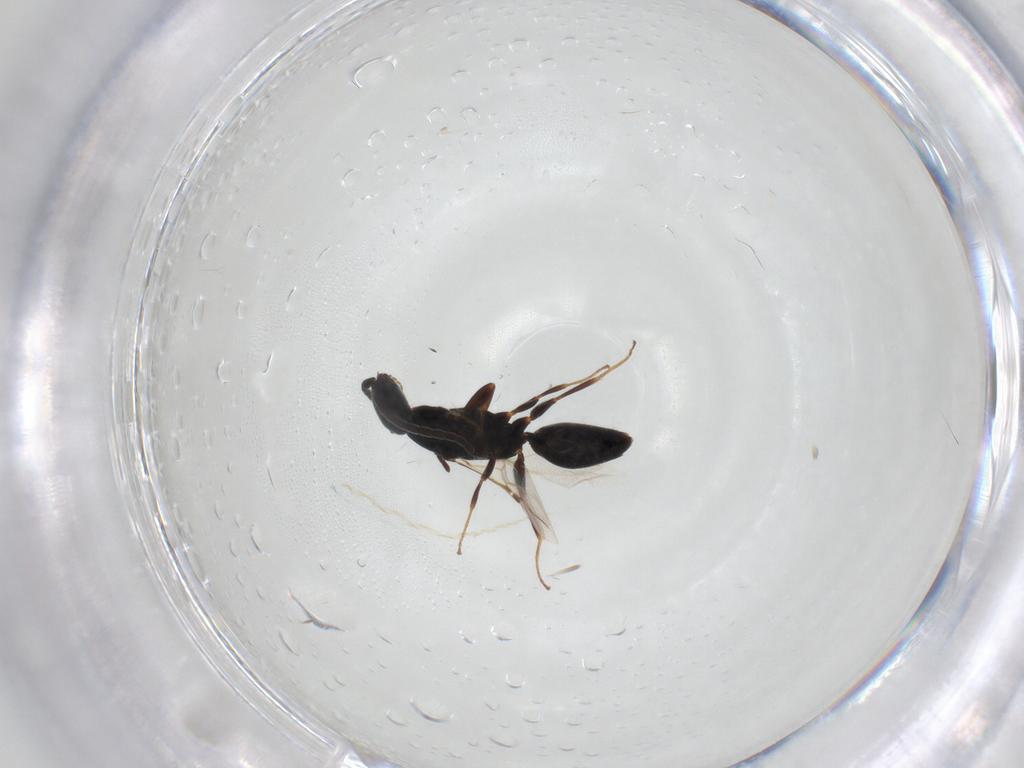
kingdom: Animalia
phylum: Arthropoda
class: Insecta
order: Hymenoptera
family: Bethylidae
